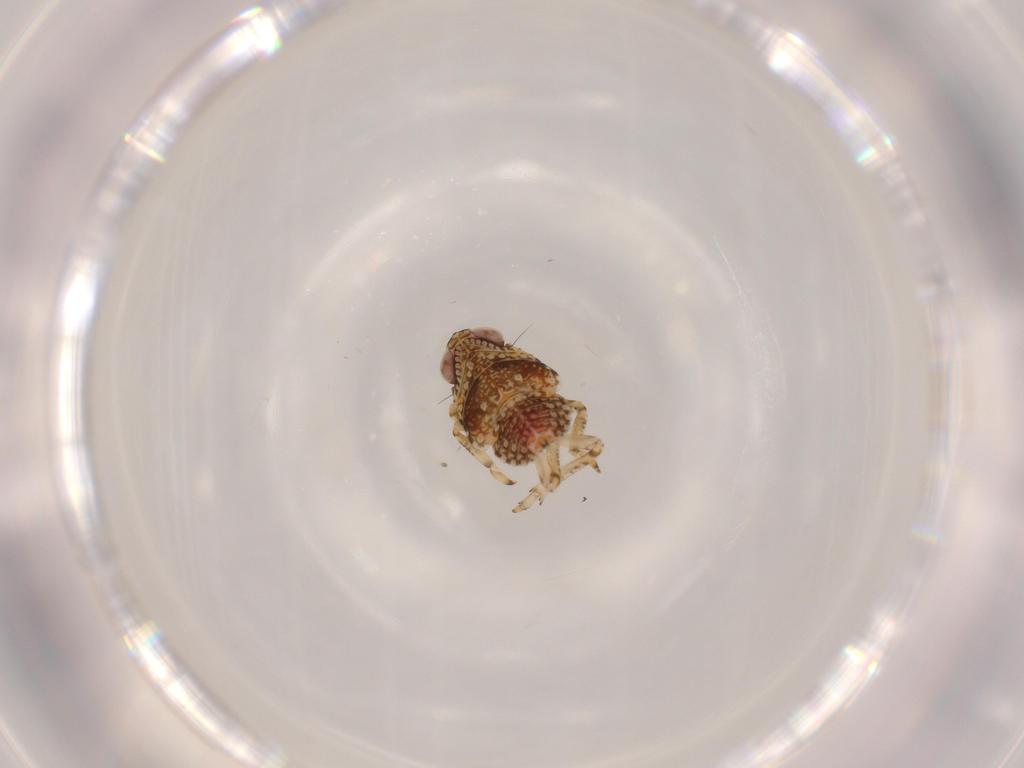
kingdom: Animalia
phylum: Arthropoda
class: Insecta
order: Hemiptera
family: Issidae
